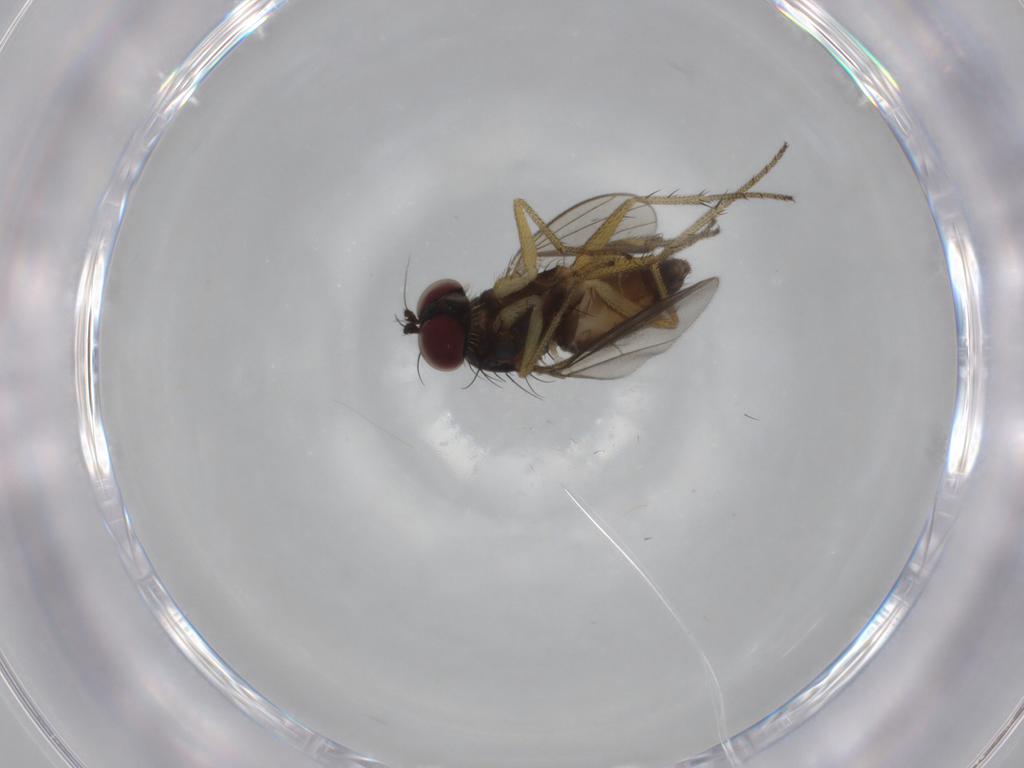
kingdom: Animalia
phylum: Arthropoda
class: Insecta
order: Diptera
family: Dolichopodidae
